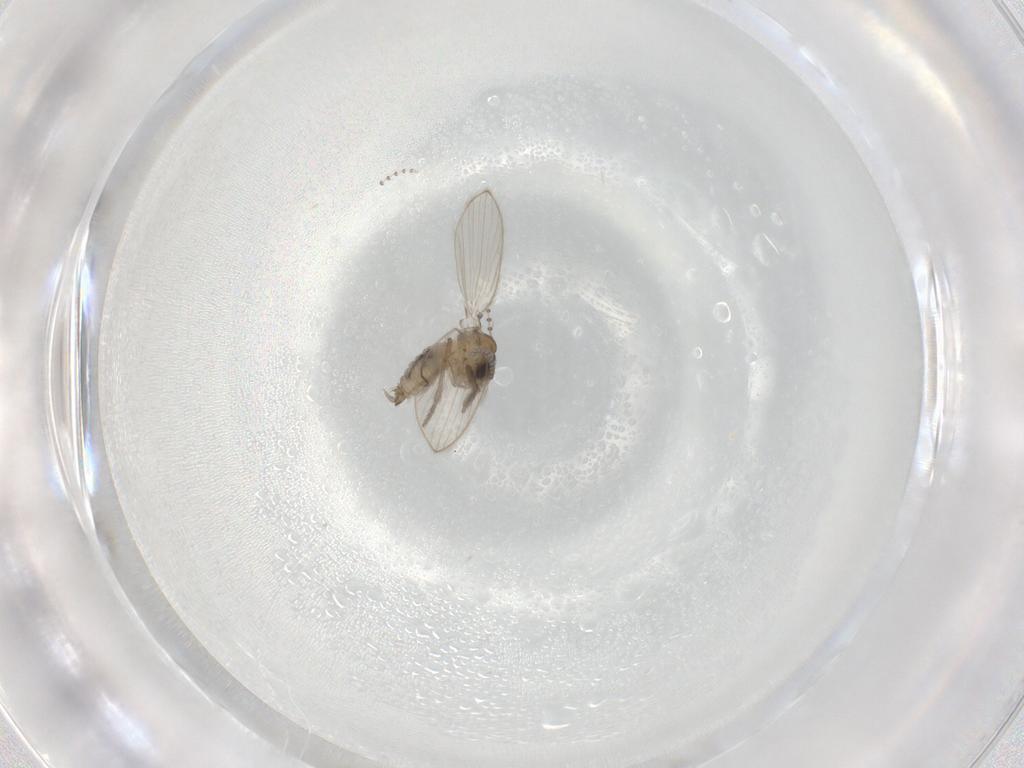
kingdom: Animalia
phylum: Arthropoda
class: Insecta
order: Diptera
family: Psychodidae
